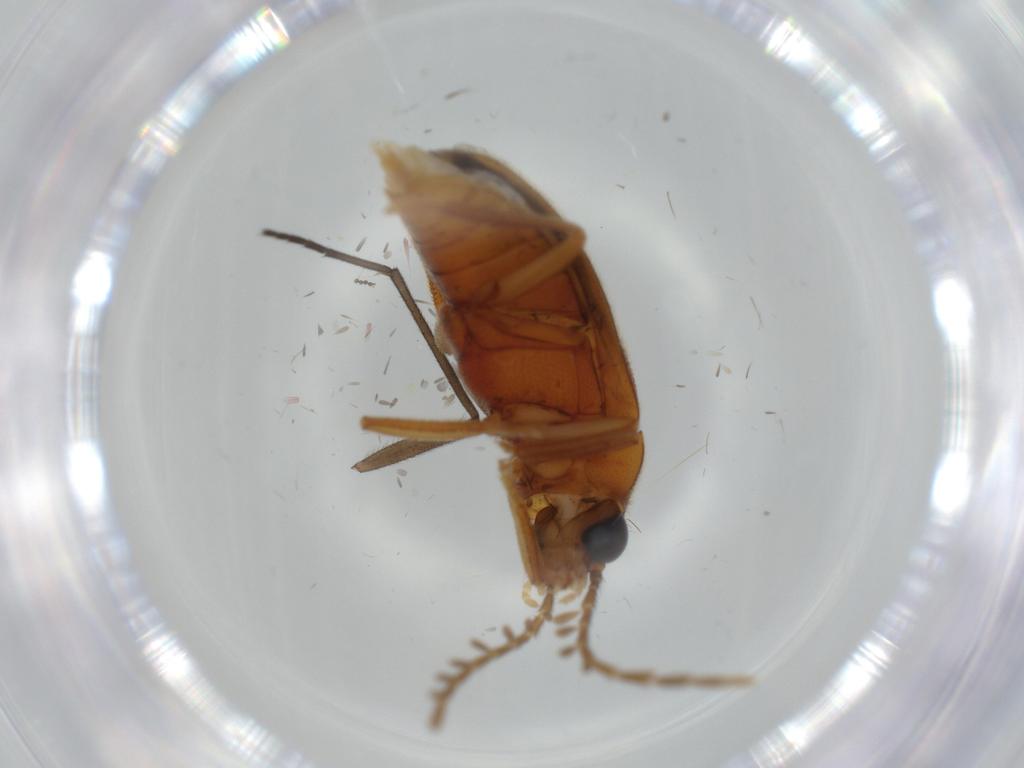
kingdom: Animalia
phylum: Arthropoda
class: Insecta
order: Coleoptera
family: Ptilodactylidae
